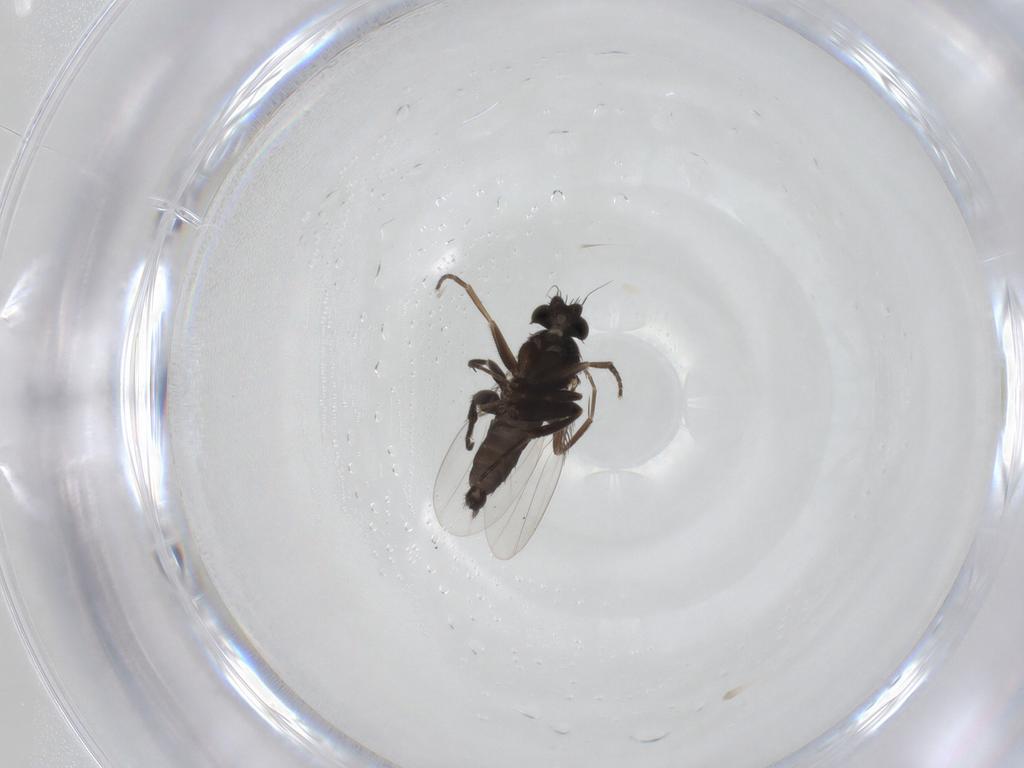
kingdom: Animalia
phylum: Arthropoda
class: Insecta
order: Diptera
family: Phoridae
